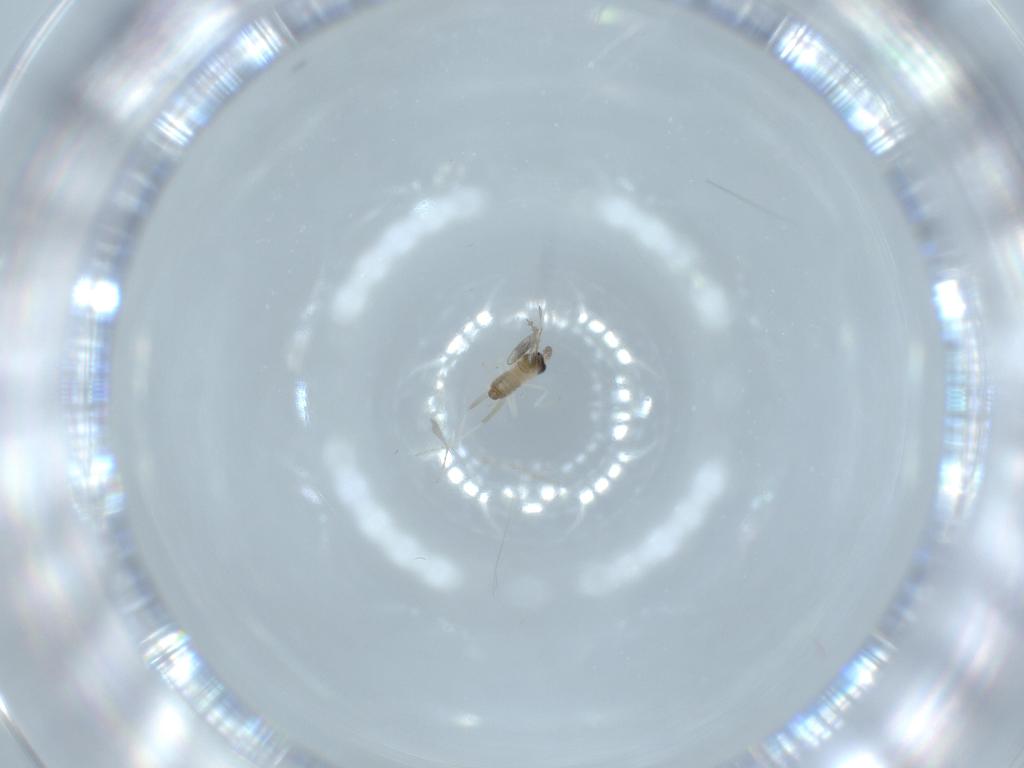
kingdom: Animalia
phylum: Arthropoda
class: Insecta
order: Diptera
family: Cecidomyiidae
